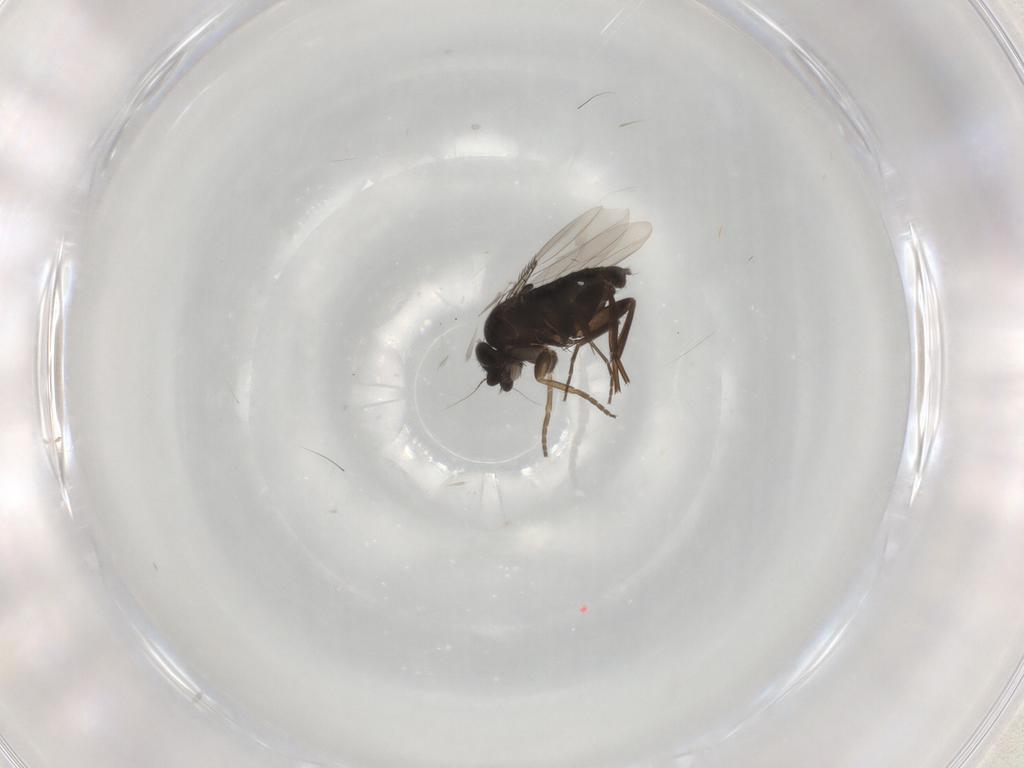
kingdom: Animalia
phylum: Arthropoda
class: Insecta
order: Diptera
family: Phoridae
